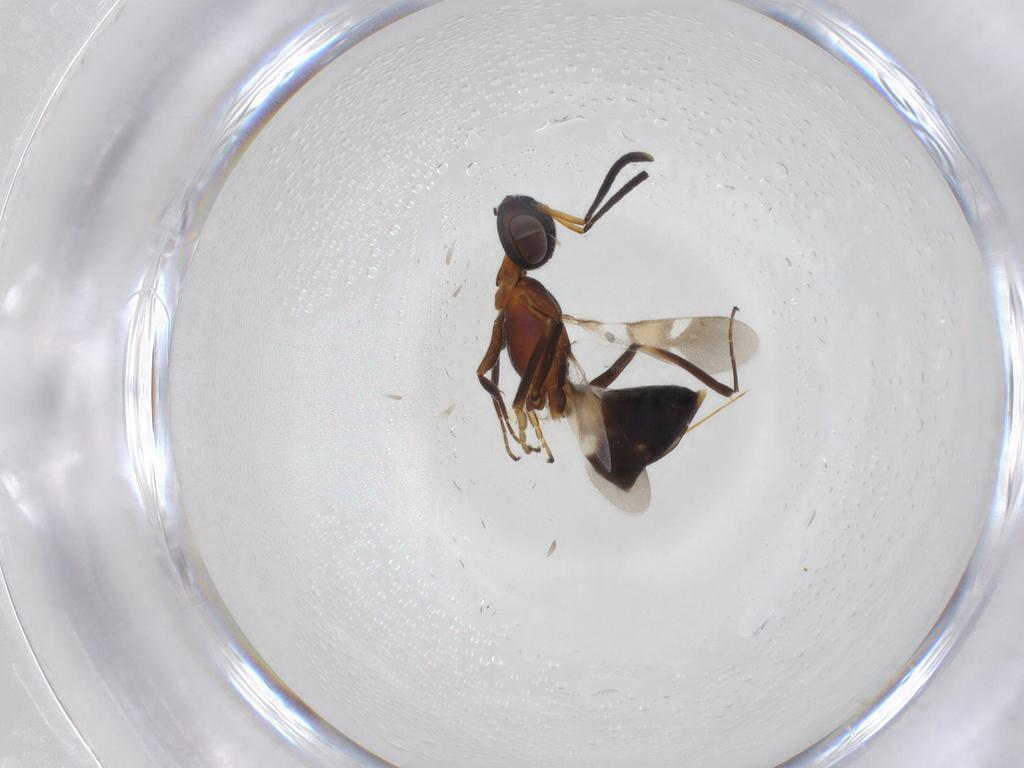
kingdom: Animalia
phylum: Arthropoda
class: Insecta
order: Hymenoptera
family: Eupelmidae
